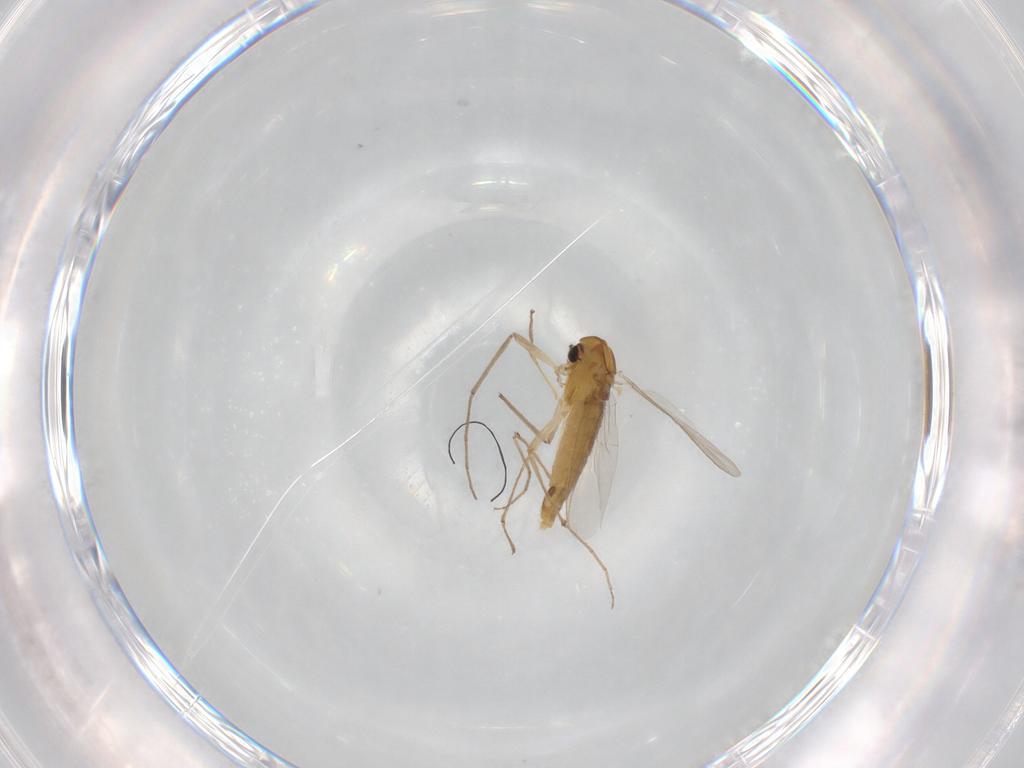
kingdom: Animalia
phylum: Arthropoda
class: Insecta
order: Diptera
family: Chironomidae
